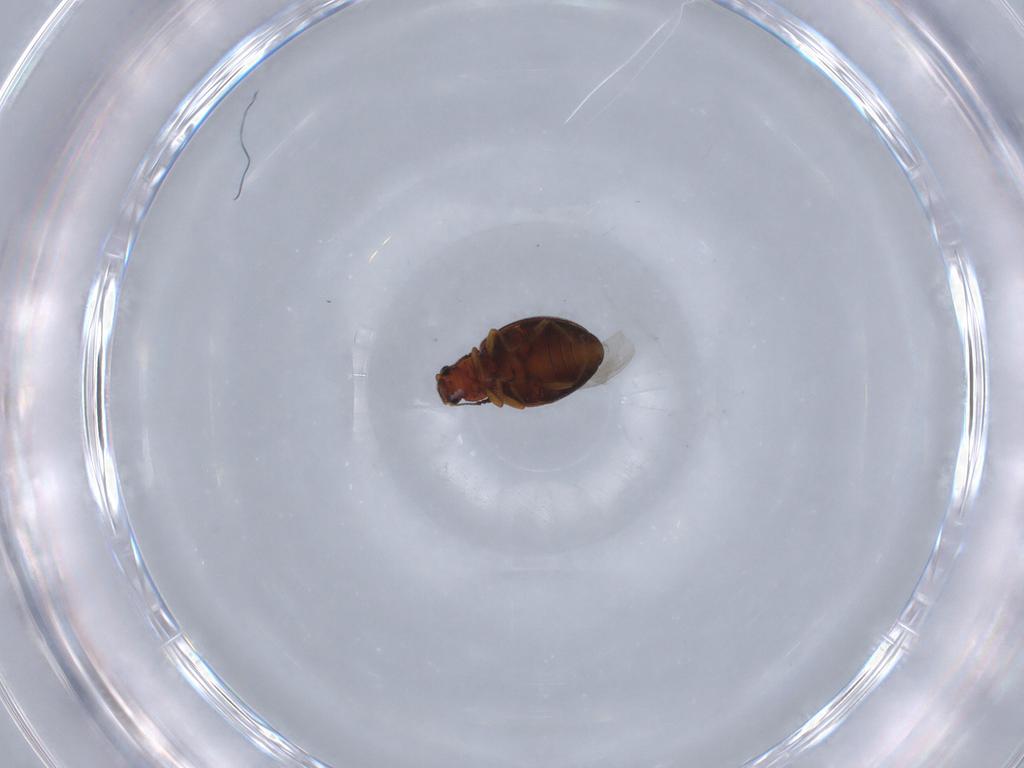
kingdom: Animalia
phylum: Arthropoda
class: Insecta
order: Coleoptera
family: Latridiidae
